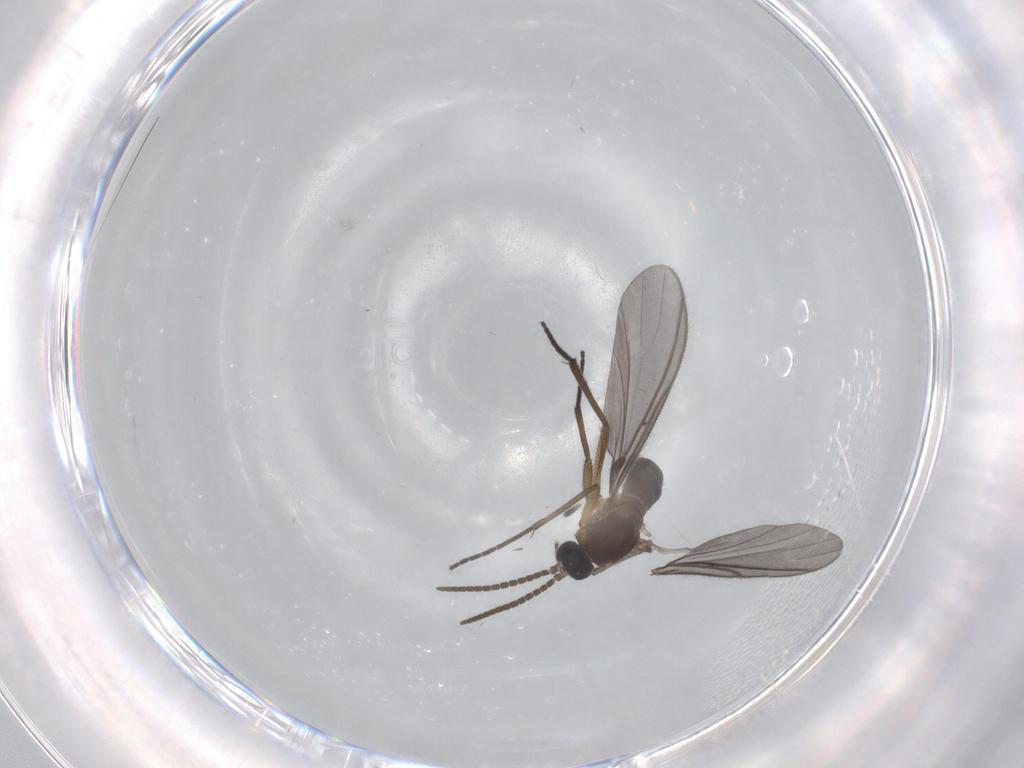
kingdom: Animalia
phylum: Arthropoda
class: Insecta
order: Diptera
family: Sciaridae
